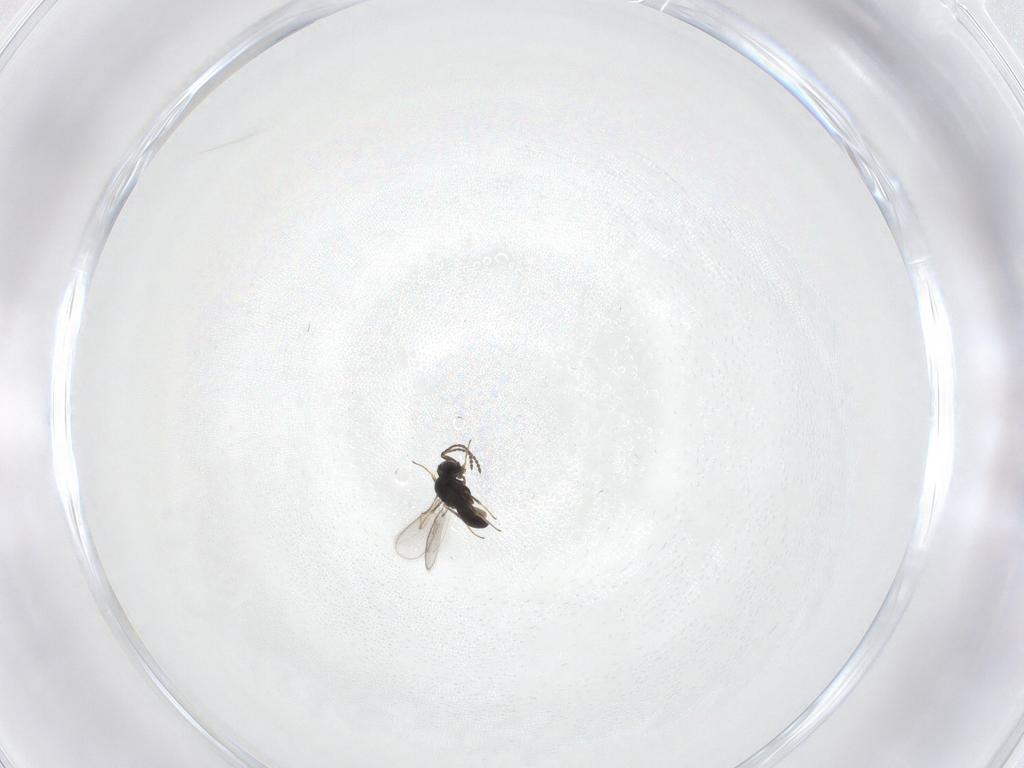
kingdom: Animalia
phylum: Arthropoda
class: Insecta
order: Hymenoptera
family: Scelionidae
